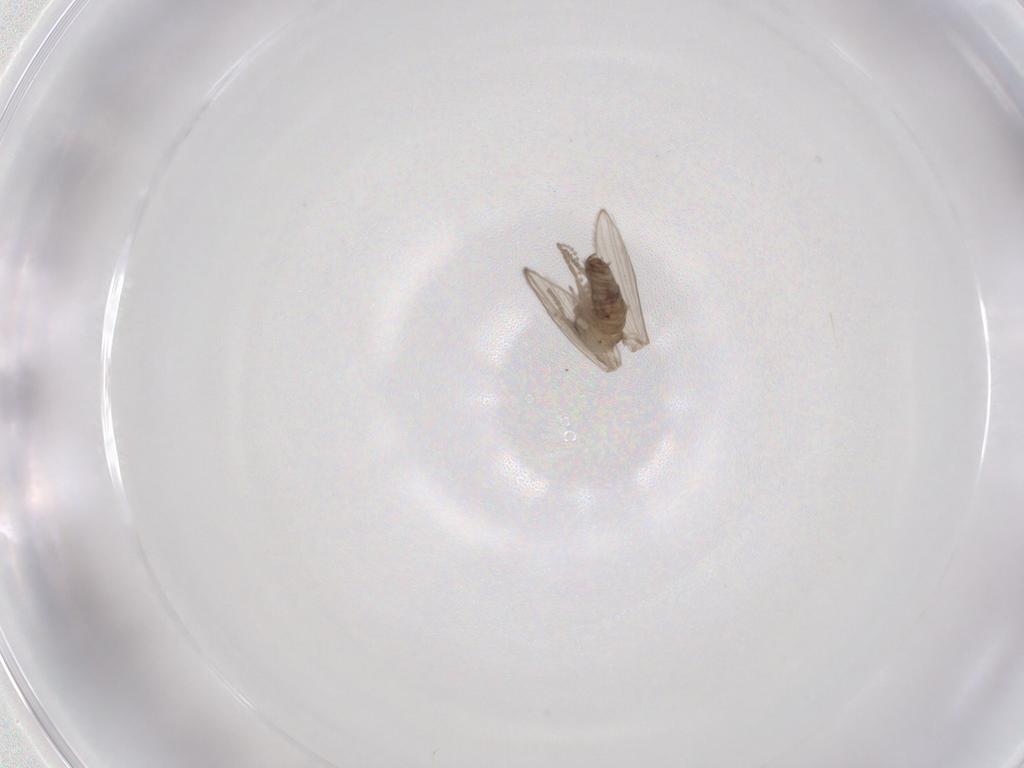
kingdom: Animalia
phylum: Arthropoda
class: Insecta
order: Diptera
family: Psychodidae
